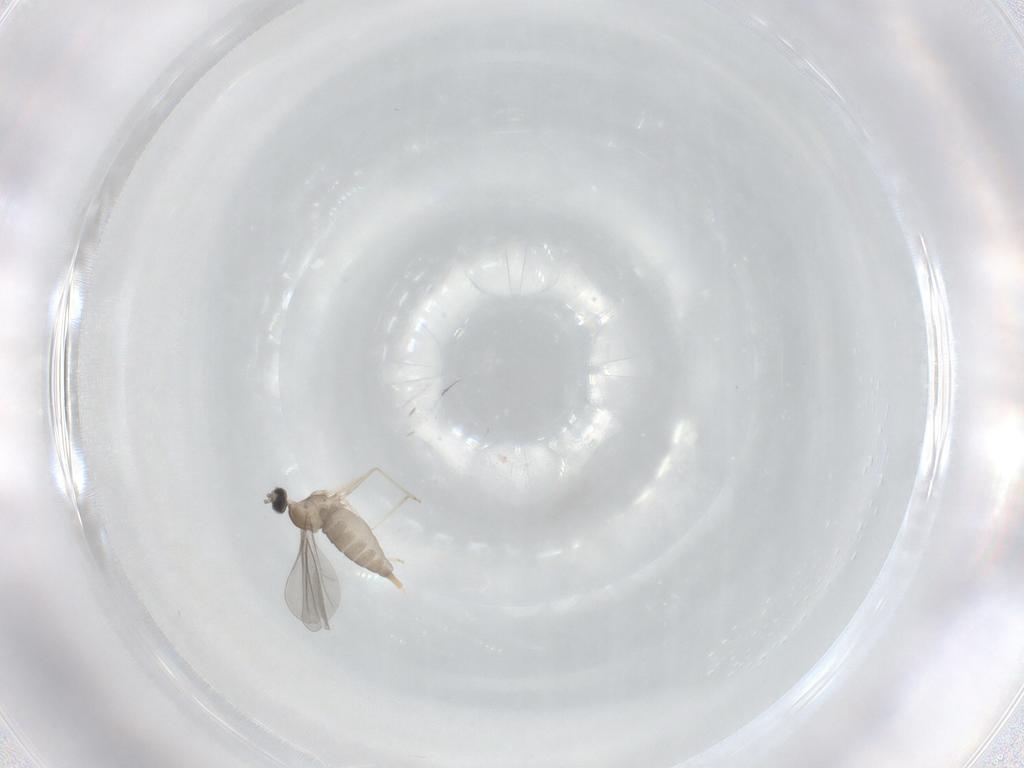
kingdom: Animalia
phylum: Arthropoda
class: Insecta
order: Diptera
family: Cecidomyiidae
